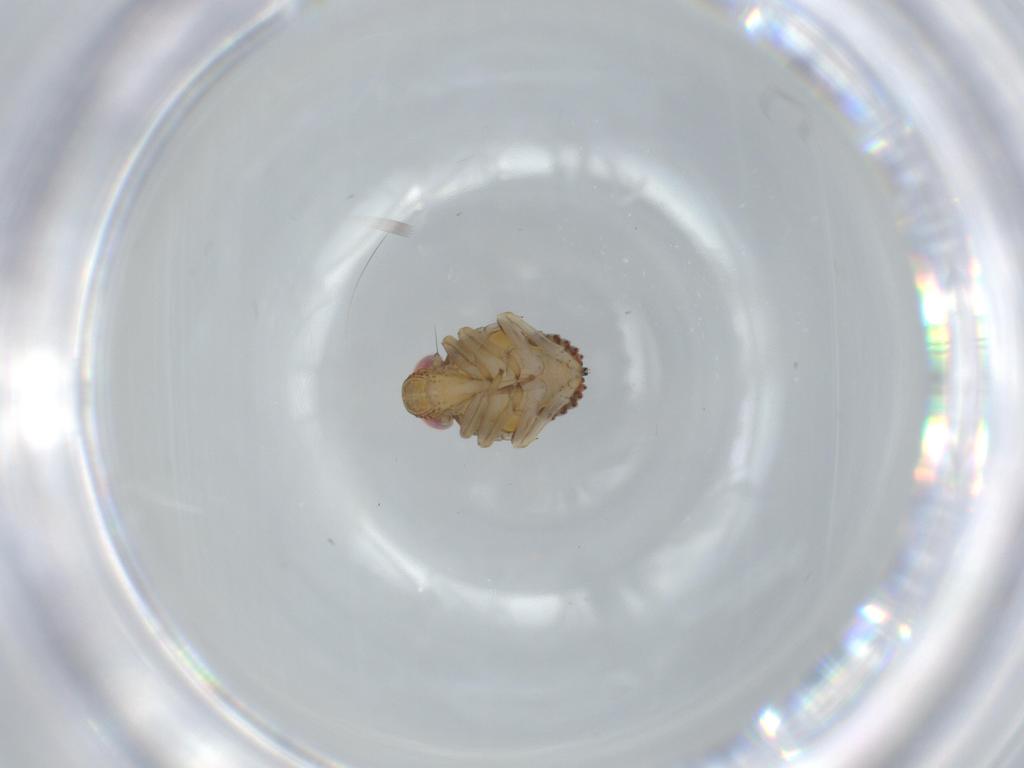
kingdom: Animalia
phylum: Arthropoda
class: Insecta
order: Hemiptera
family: Issidae
